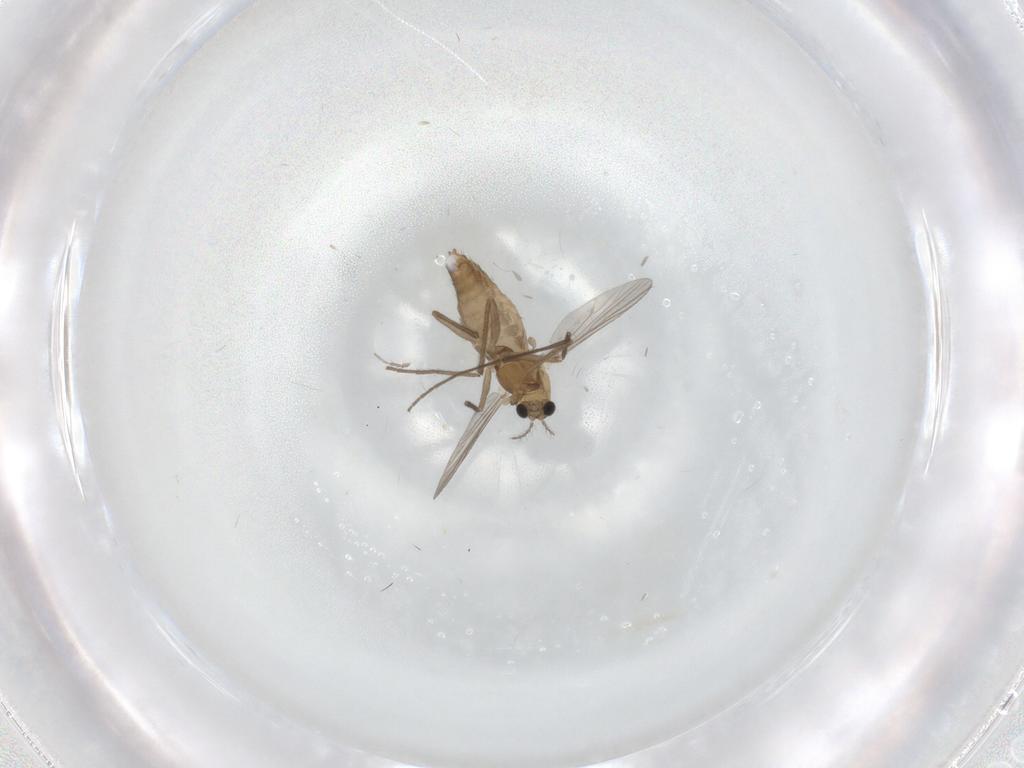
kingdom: Animalia
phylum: Arthropoda
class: Insecta
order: Diptera
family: Chironomidae
